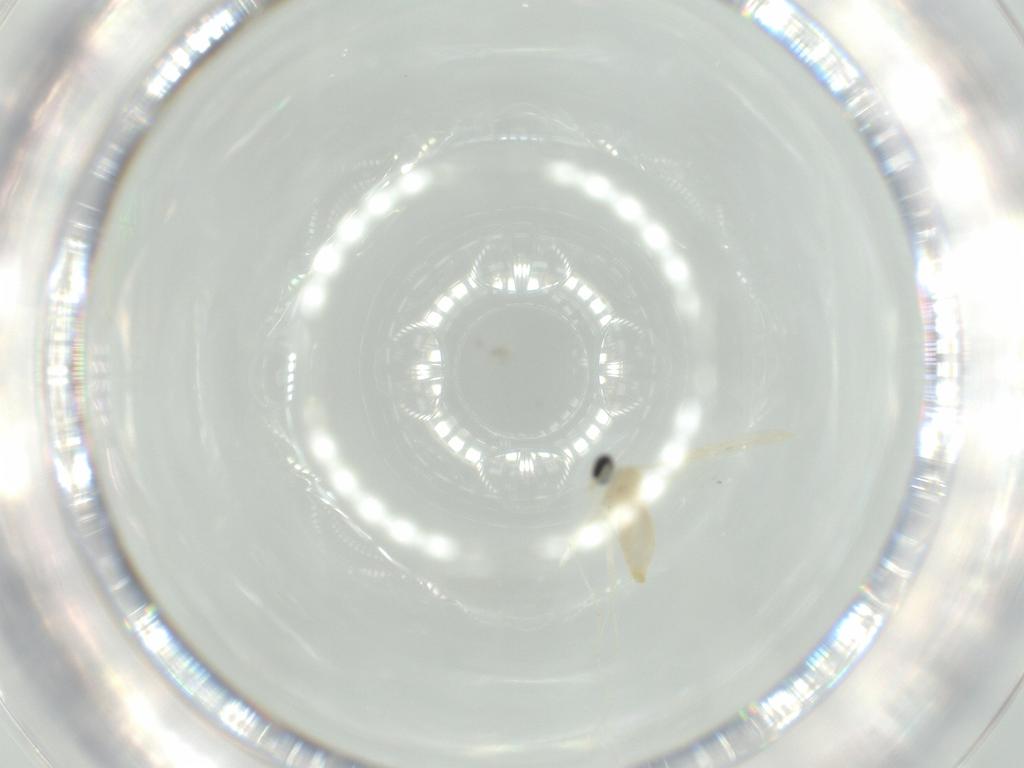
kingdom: Animalia
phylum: Arthropoda
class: Insecta
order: Diptera
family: Cecidomyiidae
